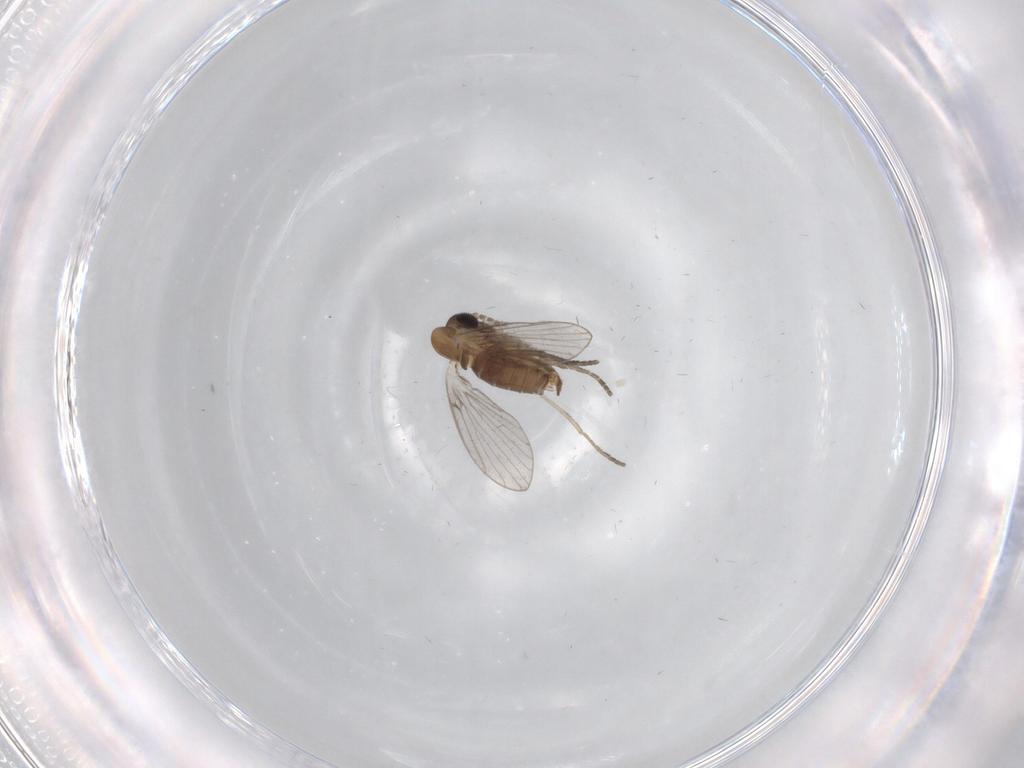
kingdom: Animalia
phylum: Arthropoda
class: Insecta
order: Diptera
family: Psychodidae
